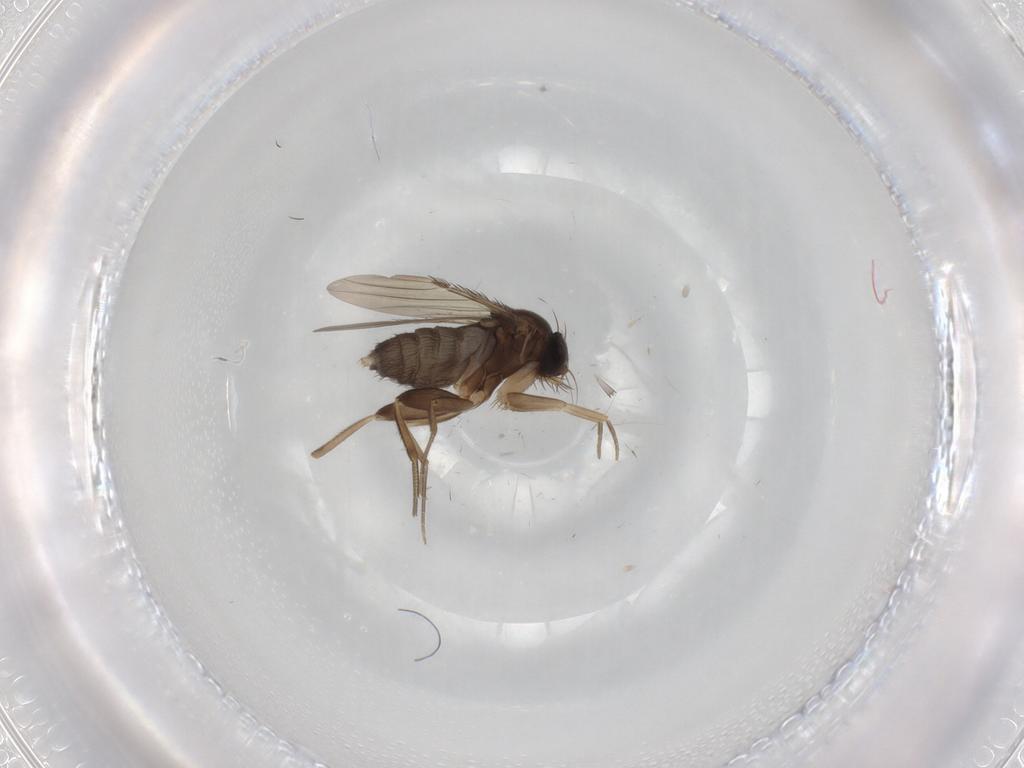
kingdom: Animalia
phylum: Arthropoda
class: Insecta
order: Diptera
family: Phoridae
